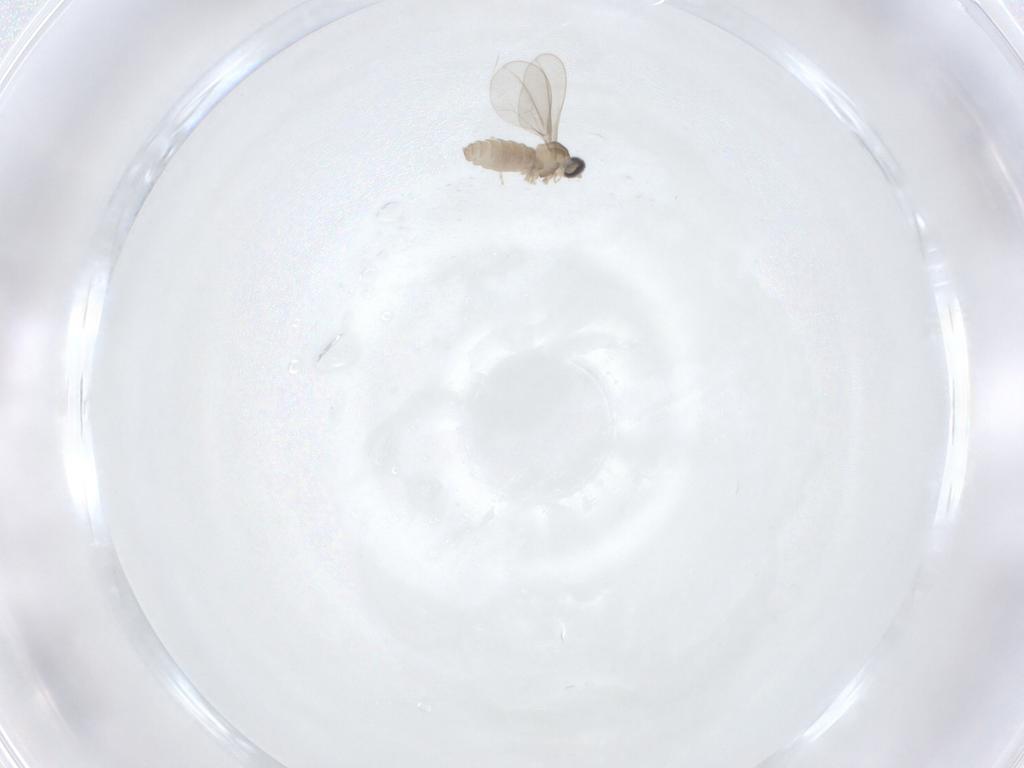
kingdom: Animalia
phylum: Arthropoda
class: Insecta
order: Diptera
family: Cecidomyiidae
